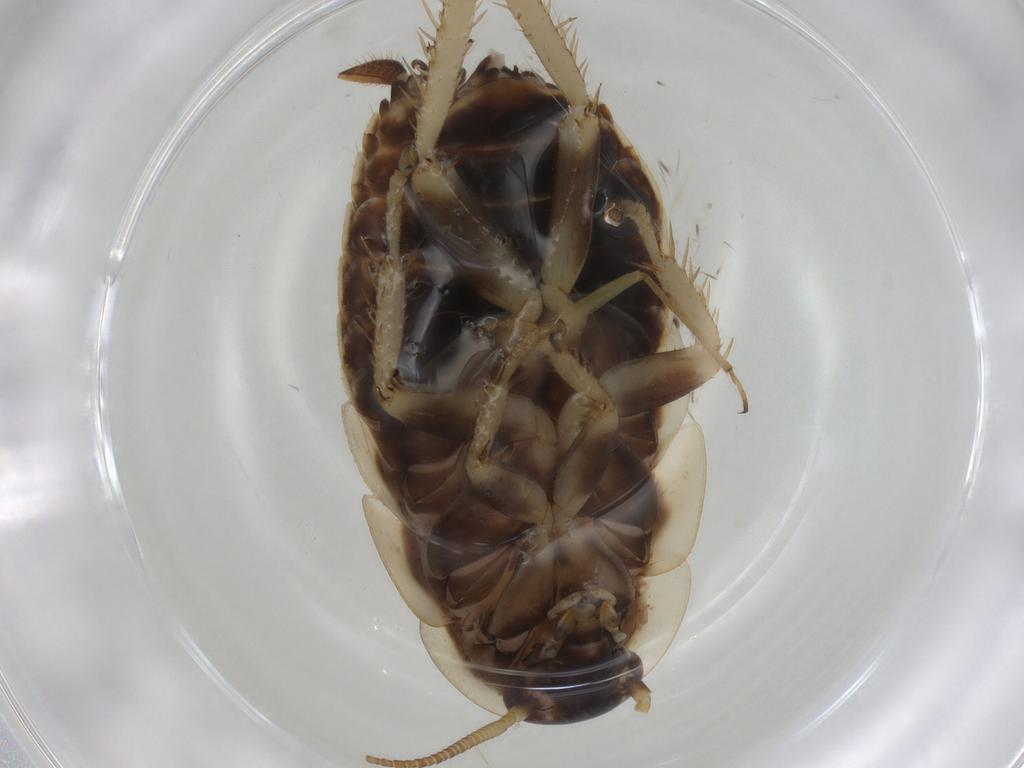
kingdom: Animalia
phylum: Arthropoda
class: Insecta
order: Blattodea
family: Ectobiidae
